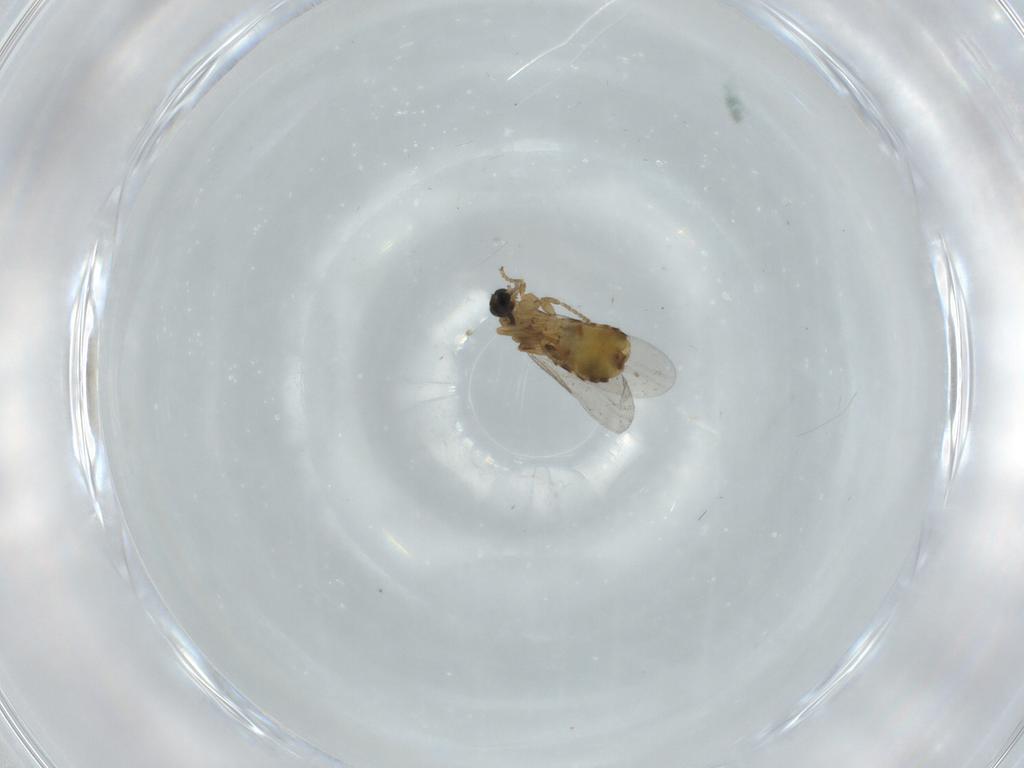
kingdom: Animalia
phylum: Arthropoda
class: Insecta
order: Diptera
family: Scatopsidae
